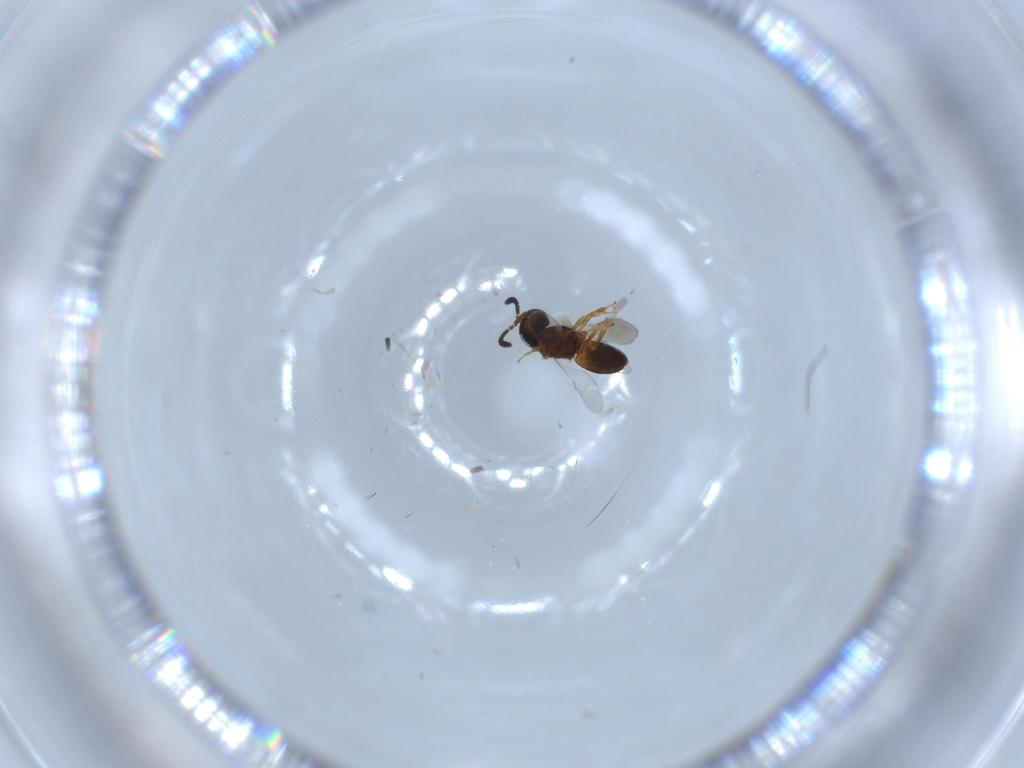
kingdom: Animalia
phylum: Arthropoda
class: Insecta
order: Hymenoptera
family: Scelionidae
